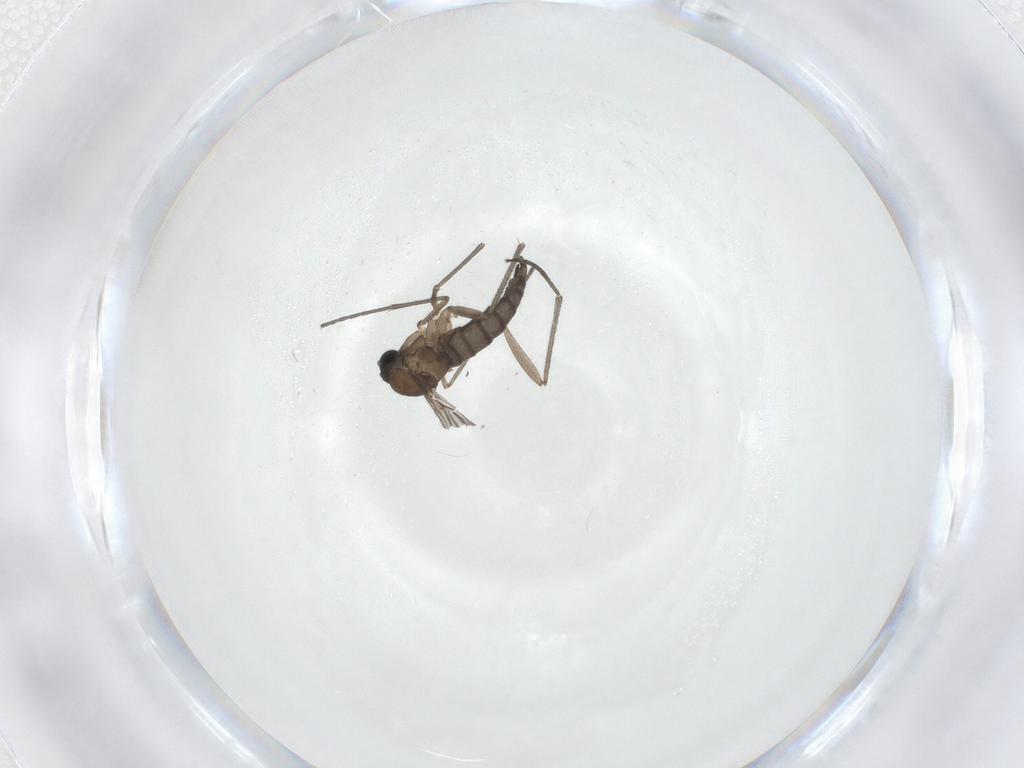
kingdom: Animalia
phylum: Arthropoda
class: Insecta
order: Diptera
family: Sciaridae
